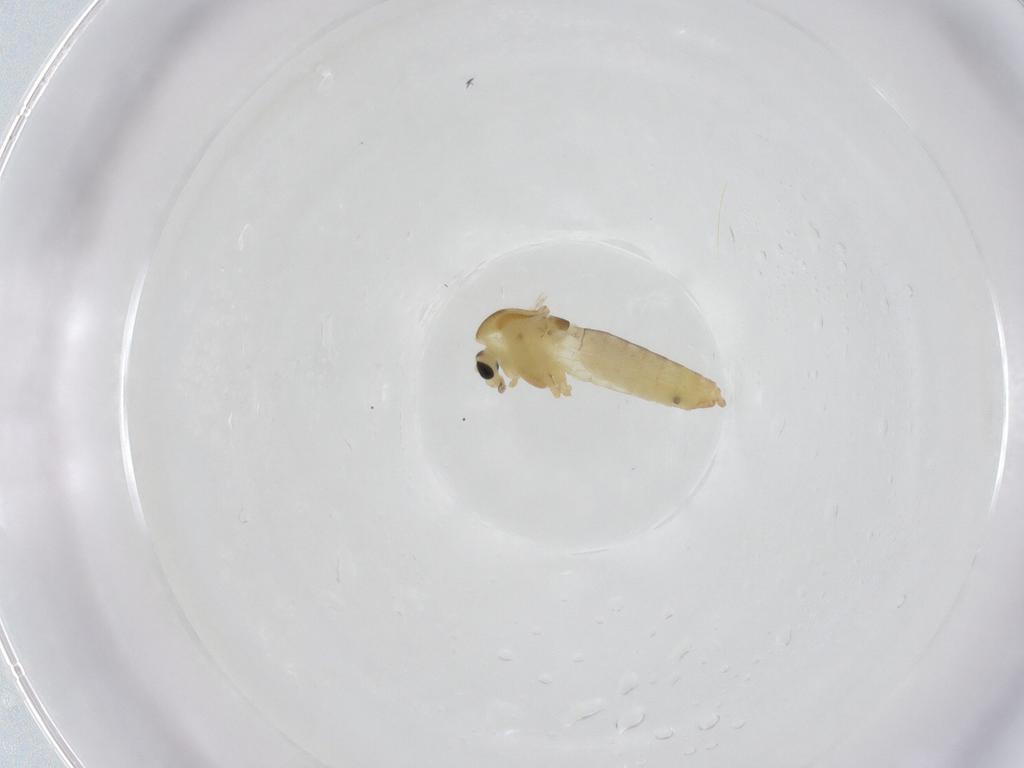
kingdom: Animalia
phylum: Arthropoda
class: Insecta
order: Diptera
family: Chironomidae
